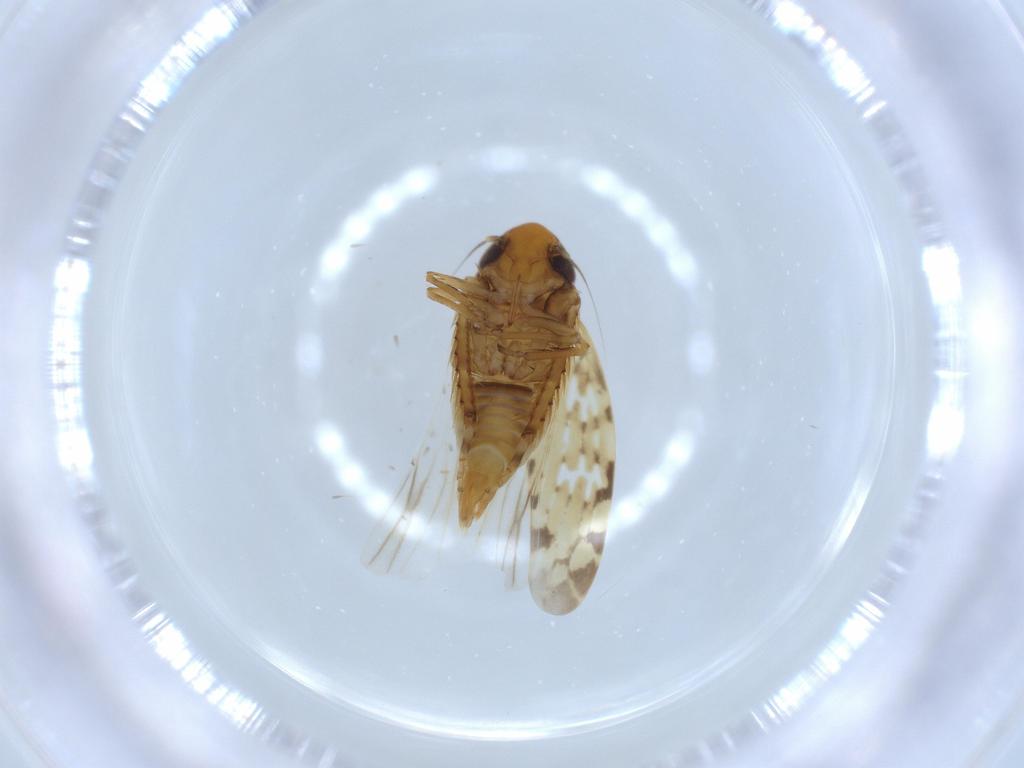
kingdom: Animalia
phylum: Arthropoda
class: Insecta
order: Hemiptera
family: Cicadellidae
